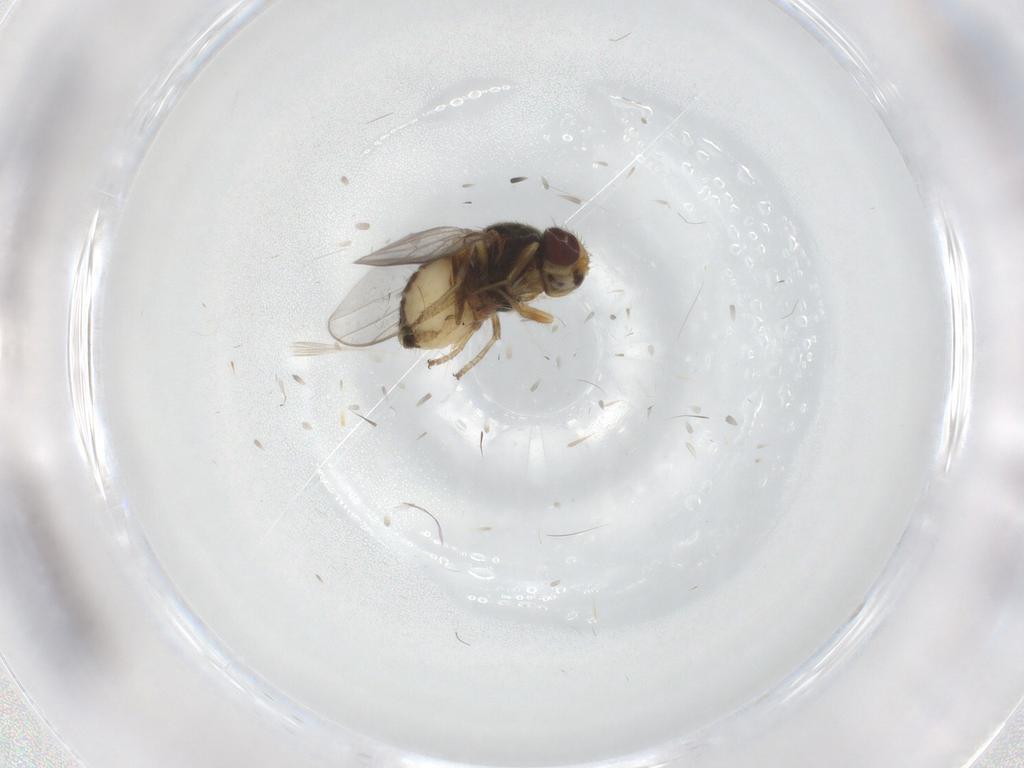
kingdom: Animalia
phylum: Arthropoda
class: Insecta
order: Diptera
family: Chloropidae
